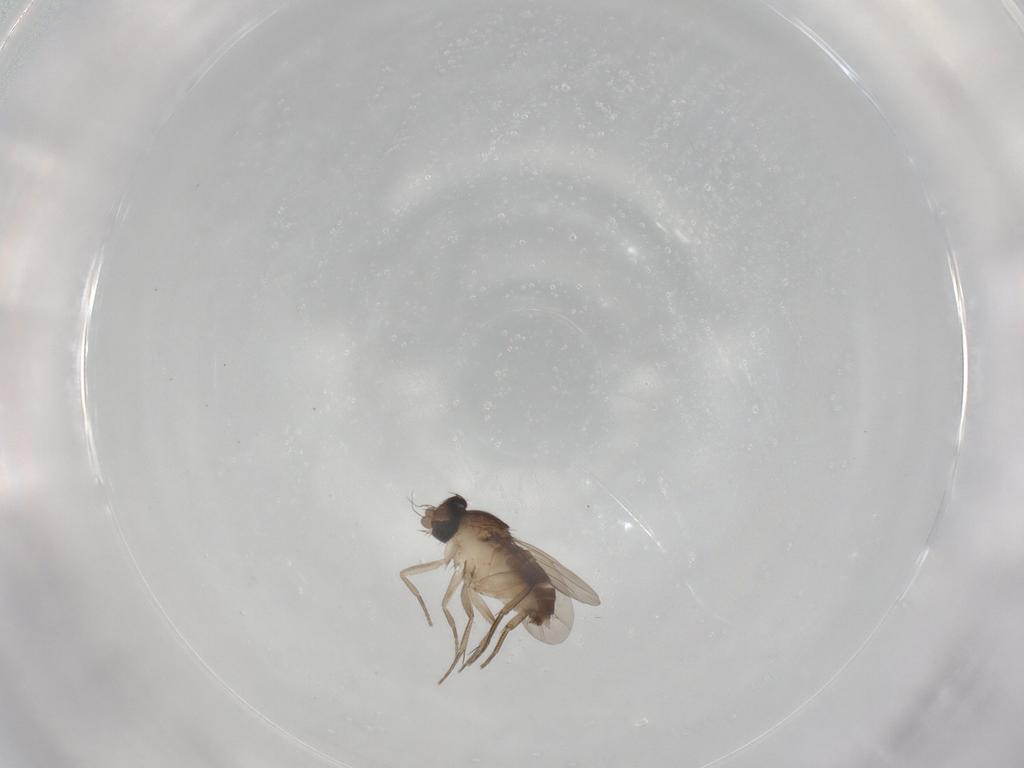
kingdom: Animalia
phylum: Arthropoda
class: Insecta
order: Diptera
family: Phoridae
